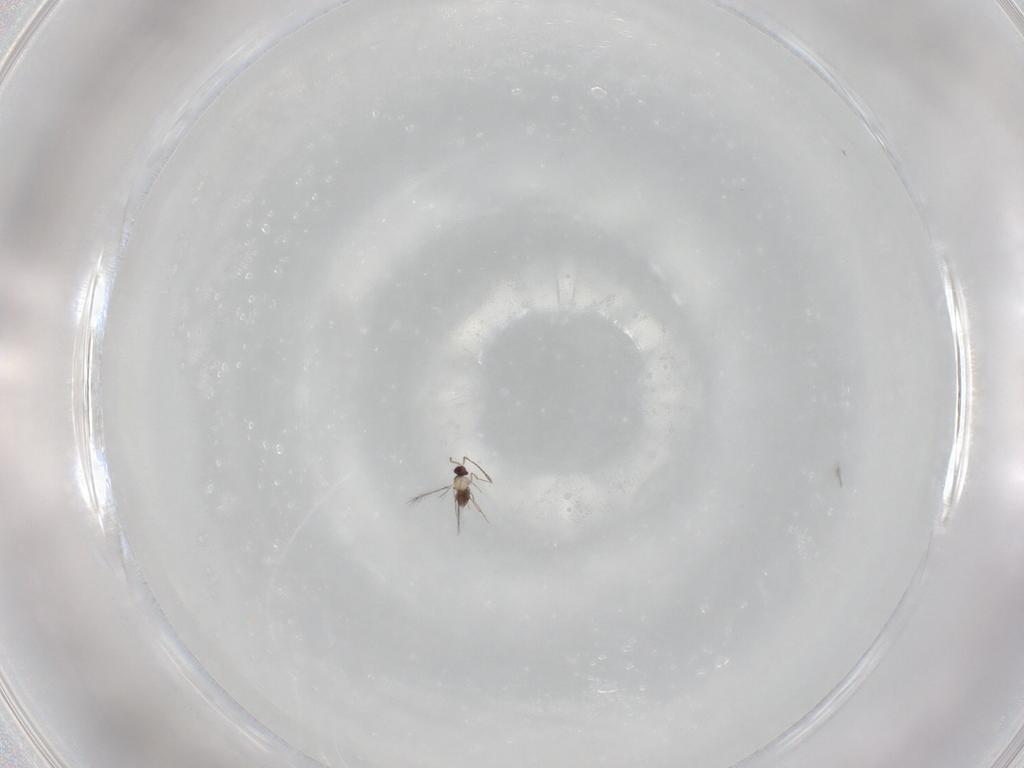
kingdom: Animalia
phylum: Arthropoda
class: Insecta
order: Hymenoptera
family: Mymaridae
